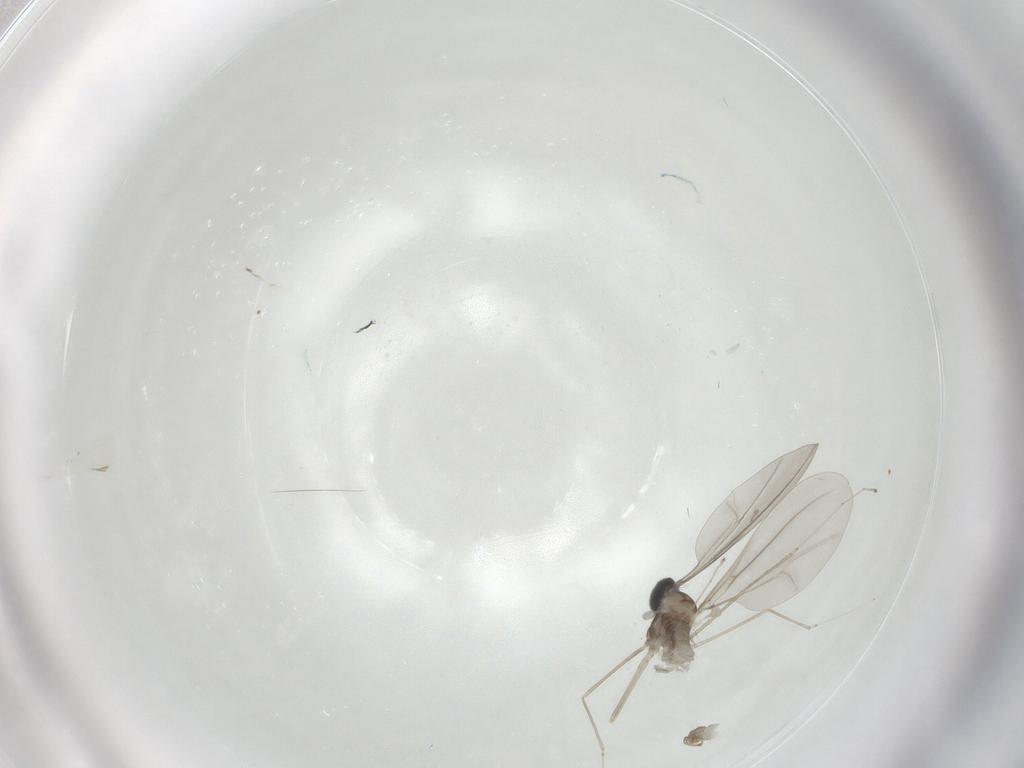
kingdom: Animalia
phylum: Arthropoda
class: Insecta
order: Diptera
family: Cecidomyiidae
